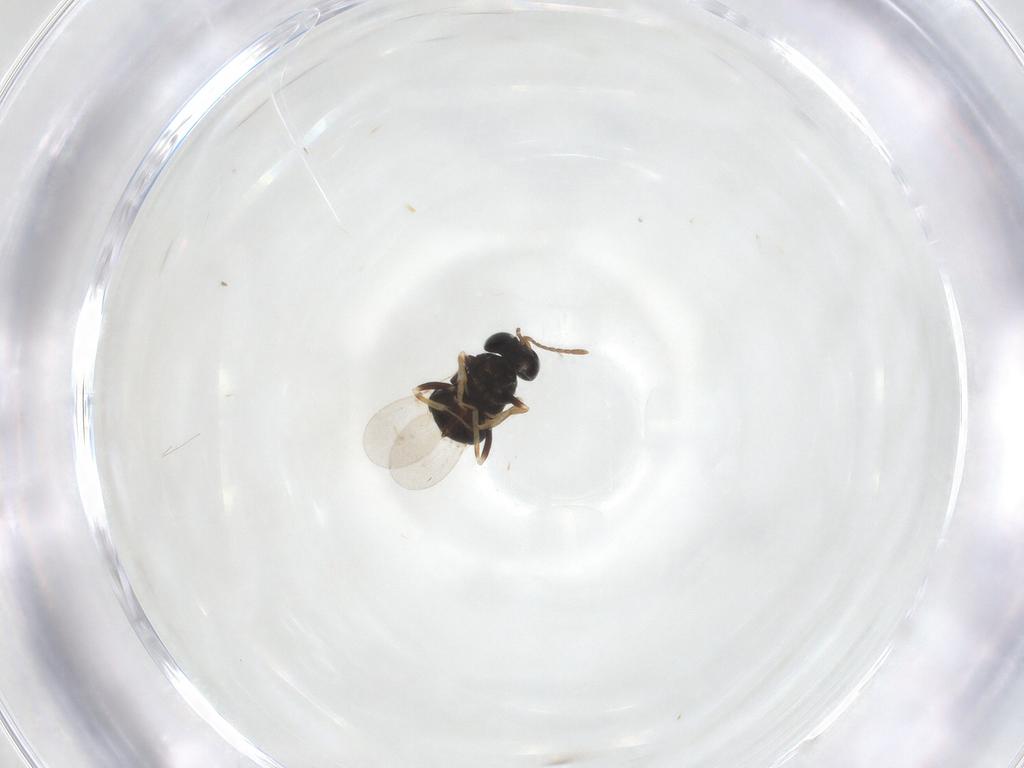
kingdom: Animalia
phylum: Arthropoda
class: Insecta
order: Hymenoptera
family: Encyrtidae
